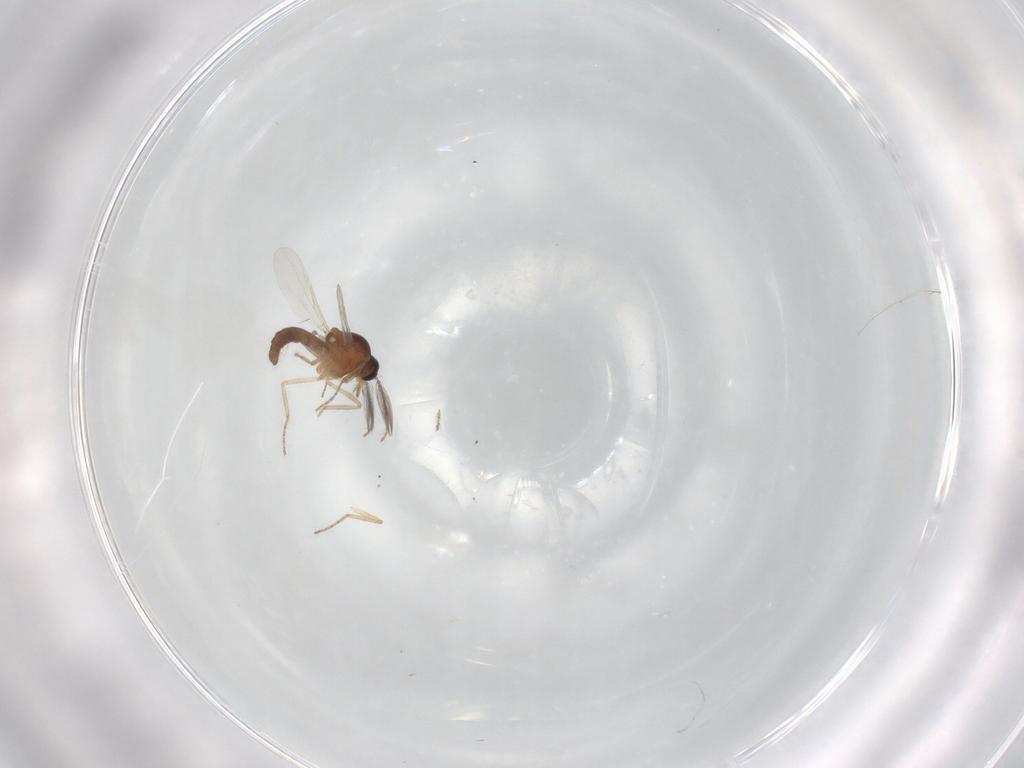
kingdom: Animalia
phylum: Arthropoda
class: Insecta
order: Diptera
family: Ceratopogonidae
